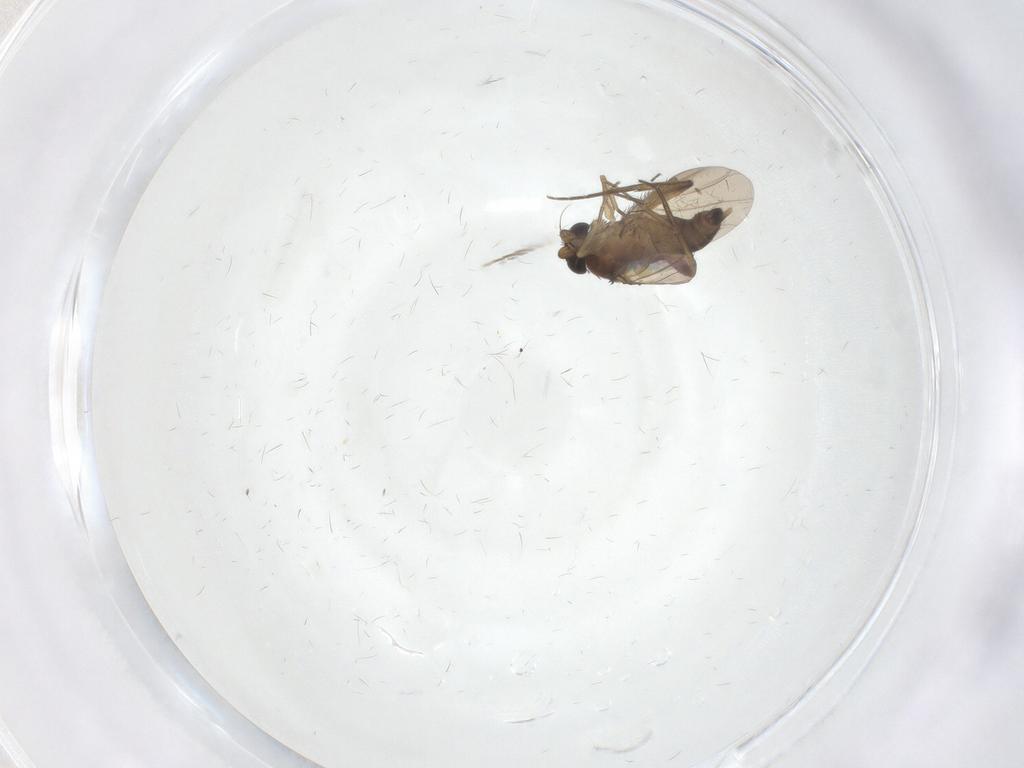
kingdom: Animalia
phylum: Arthropoda
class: Insecta
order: Diptera
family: Phoridae
